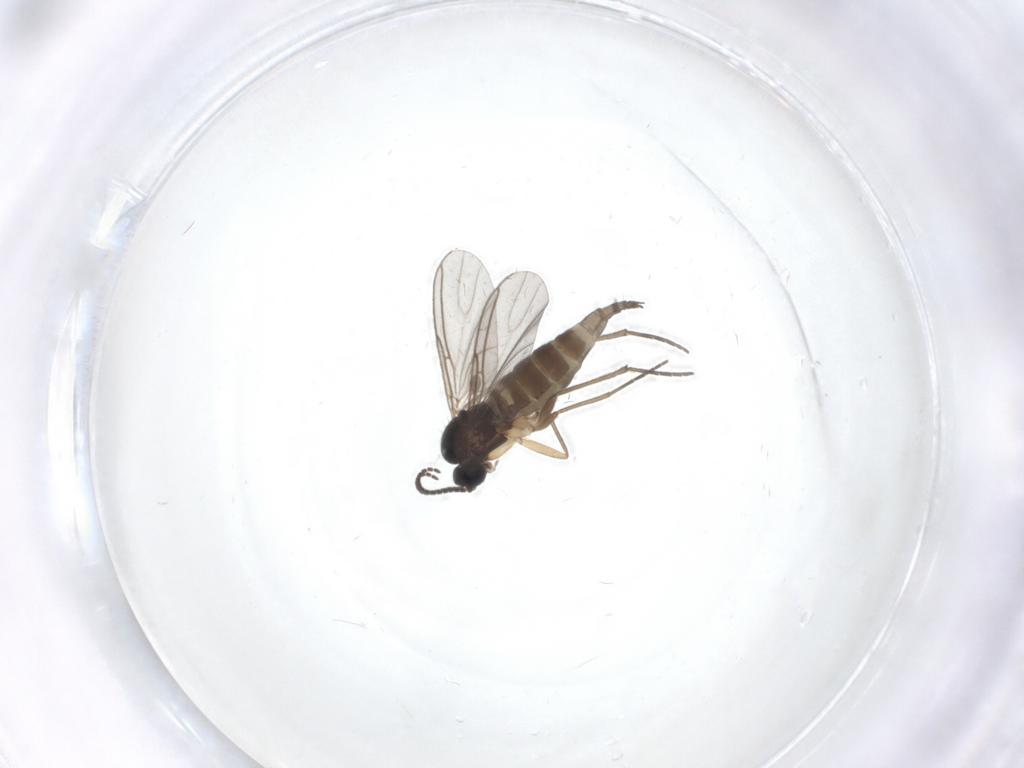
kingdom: Animalia
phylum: Arthropoda
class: Insecta
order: Diptera
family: Sciaridae
